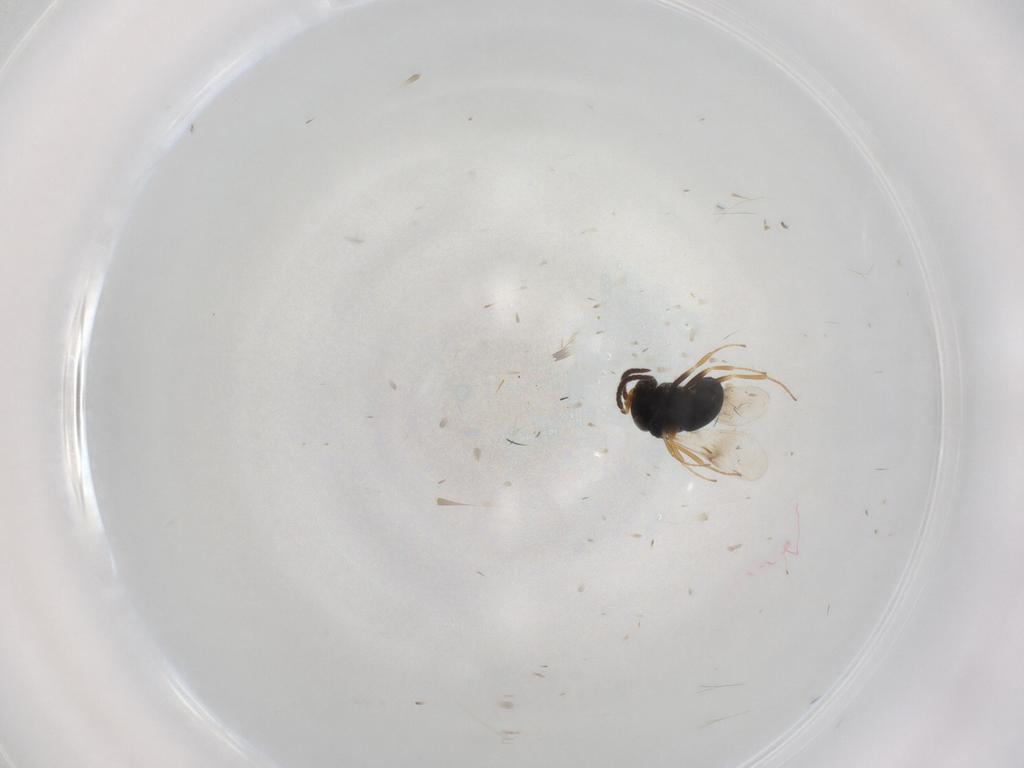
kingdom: Animalia
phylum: Arthropoda
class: Insecta
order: Hymenoptera
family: Scelionidae
